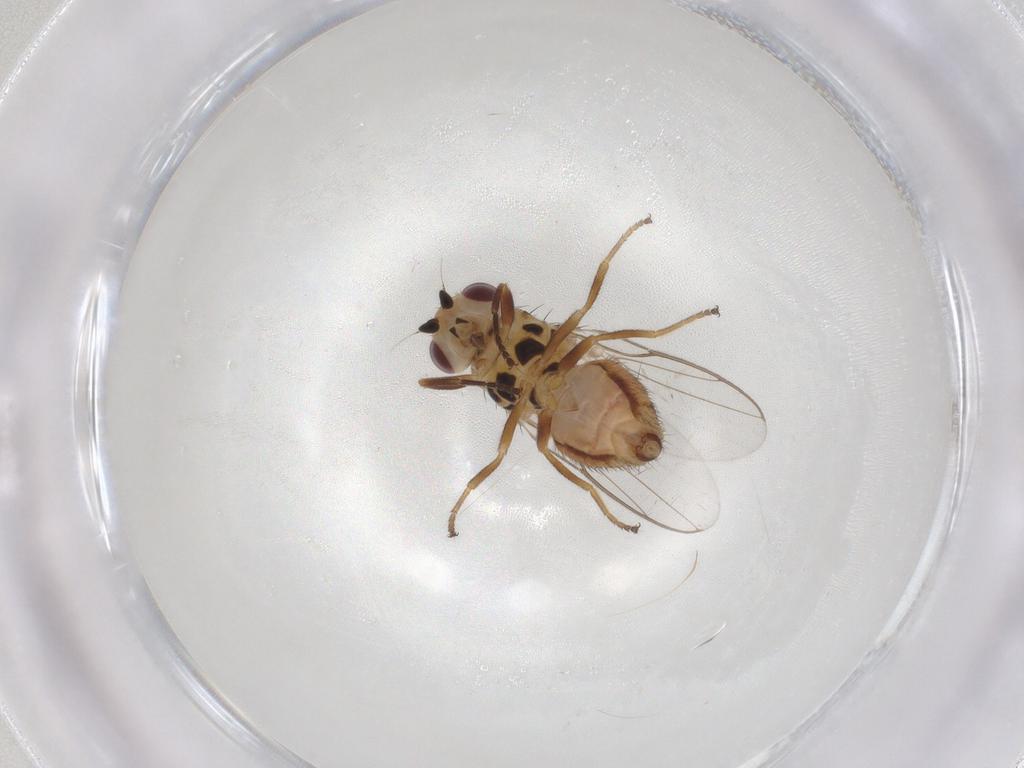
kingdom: Animalia
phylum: Arthropoda
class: Insecta
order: Diptera
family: Chloropidae
